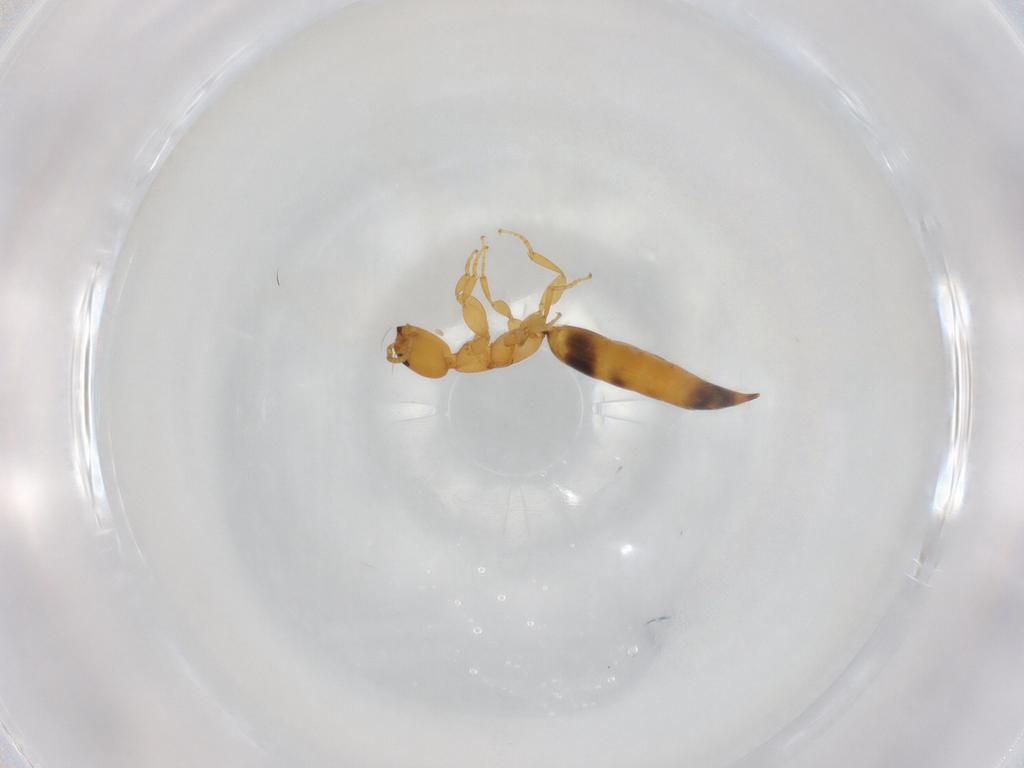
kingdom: Animalia
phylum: Arthropoda
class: Insecta
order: Hymenoptera
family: Bethylidae
